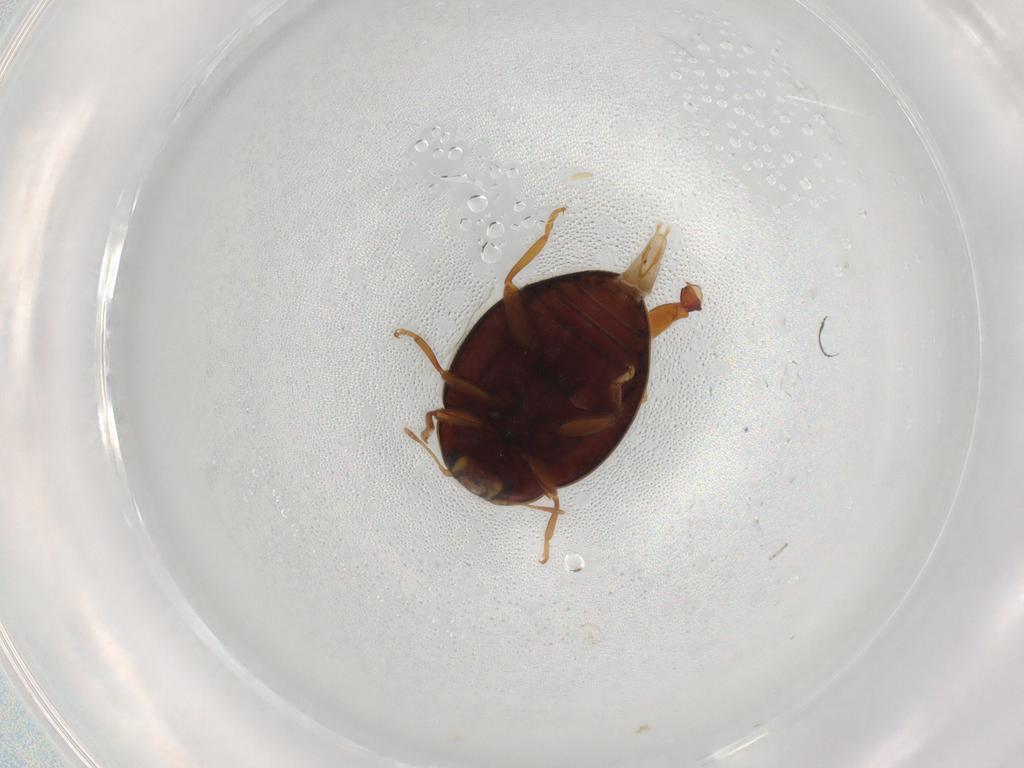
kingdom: Animalia
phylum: Arthropoda
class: Insecta
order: Coleoptera
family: Coccinellidae
